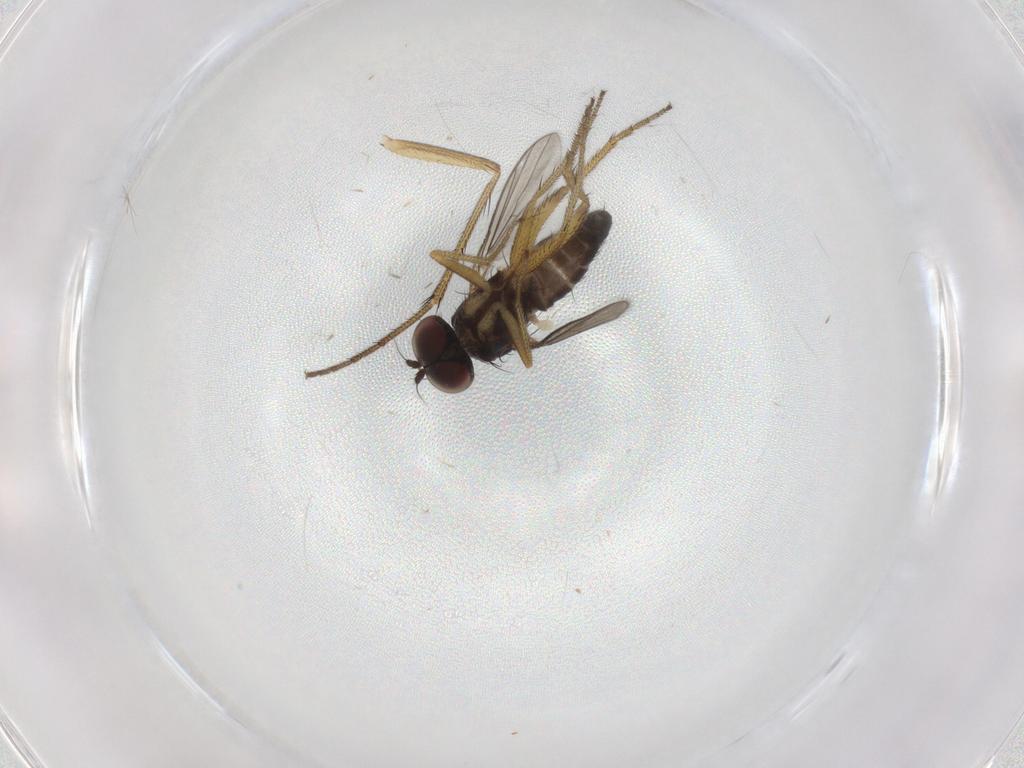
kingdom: Animalia
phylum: Arthropoda
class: Insecta
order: Diptera
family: Dolichopodidae
